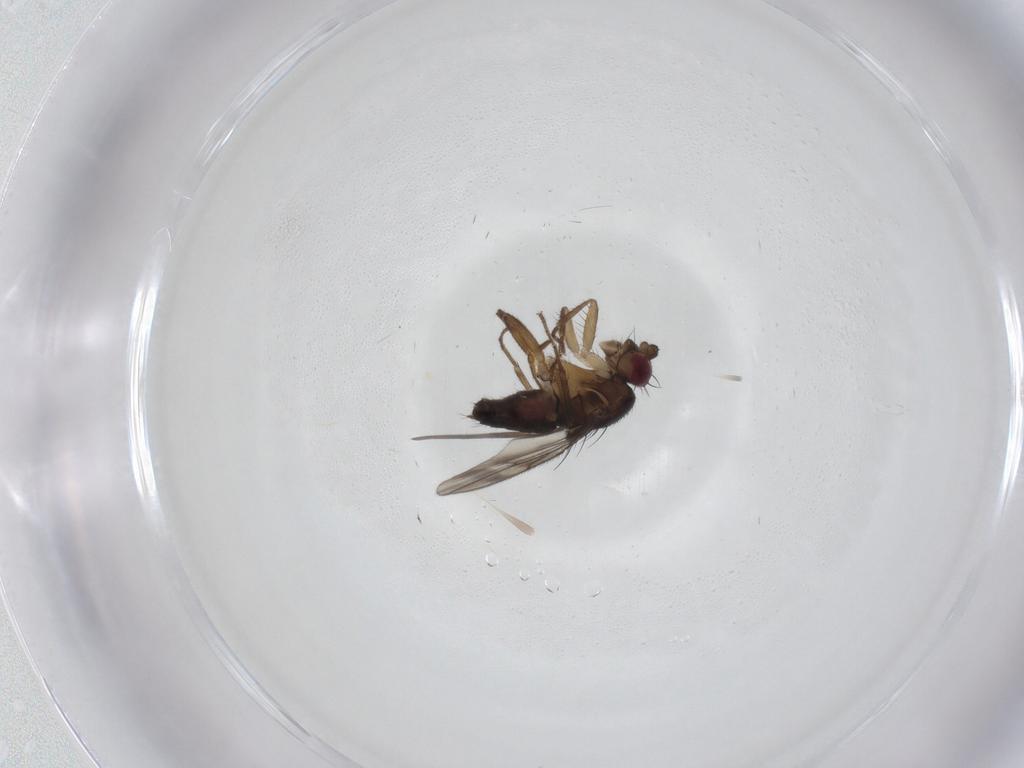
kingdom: Animalia
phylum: Arthropoda
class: Insecta
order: Diptera
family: Sphaeroceridae
